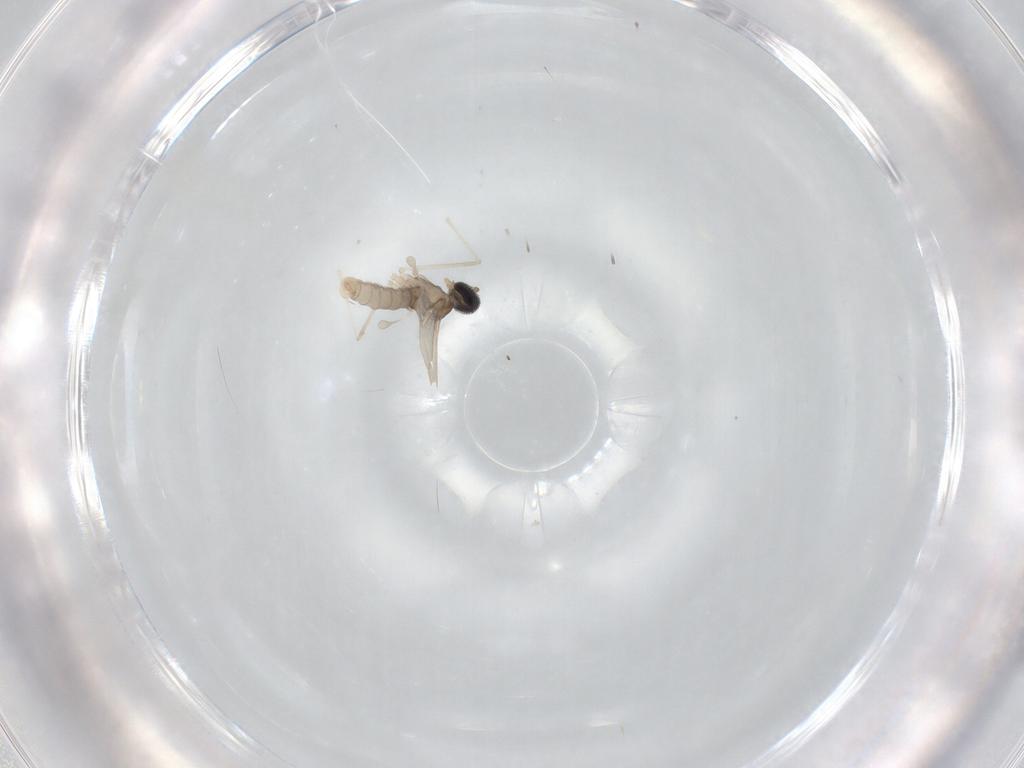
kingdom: Animalia
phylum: Arthropoda
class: Insecta
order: Diptera
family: Cecidomyiidae
